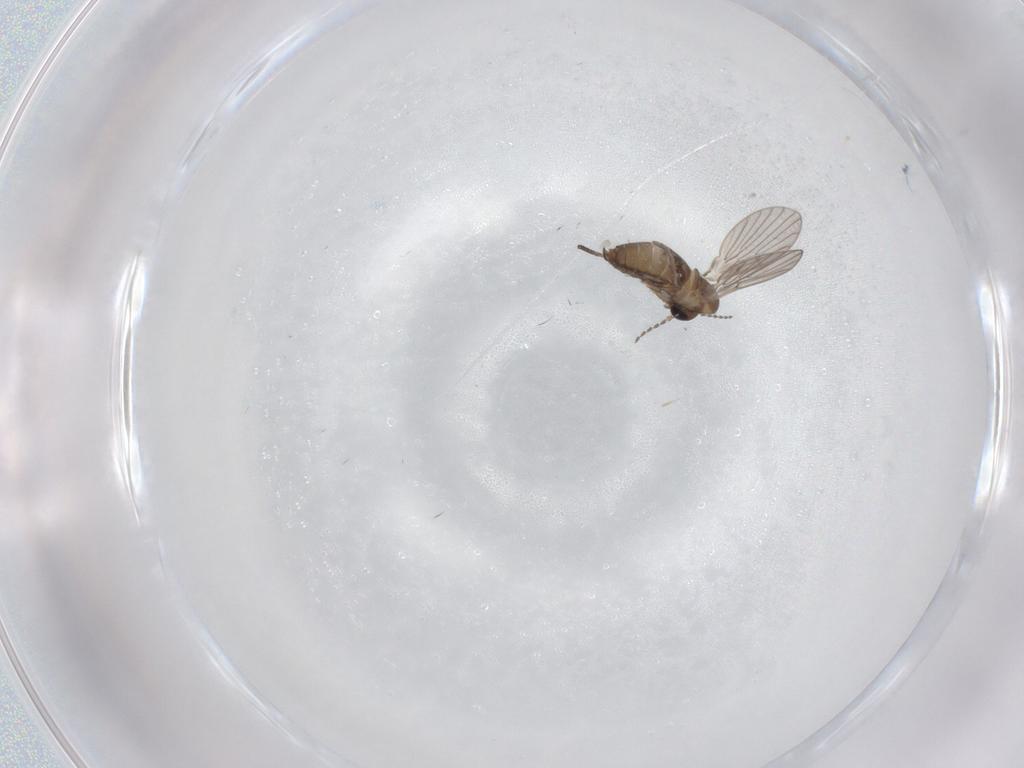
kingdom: Animalia
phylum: Arthropoda
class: Insecta
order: Diptera
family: Phoridae
